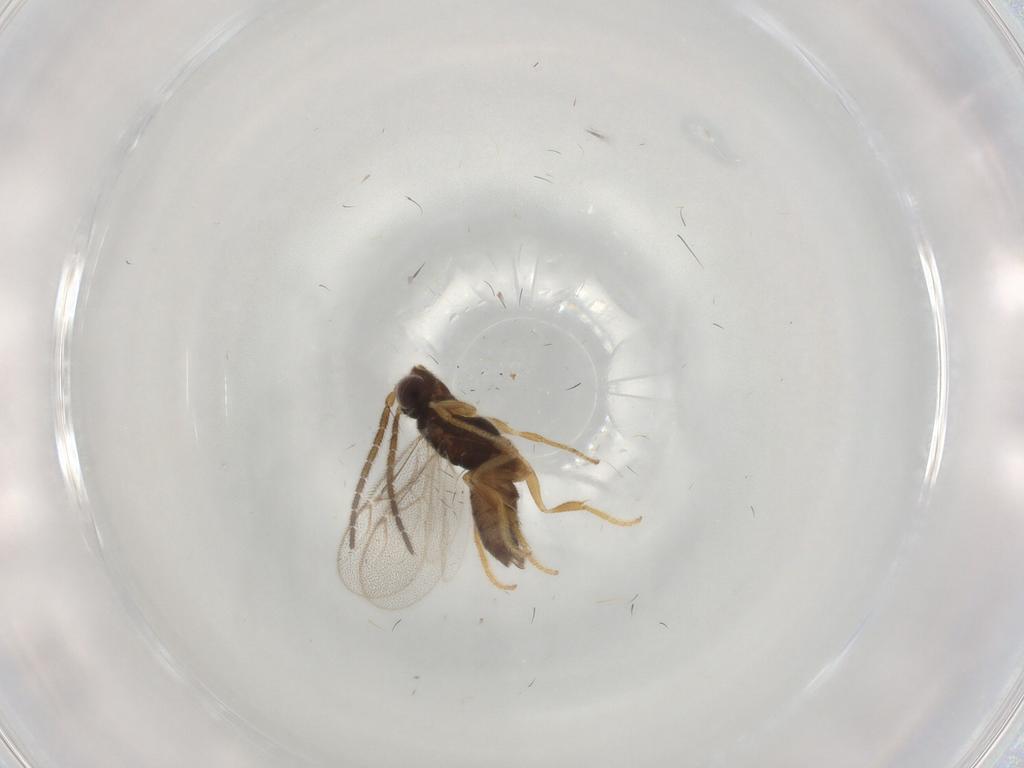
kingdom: Animalia
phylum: Arthropoda
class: Insecta
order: Hymenoptera
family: Dryinidae
